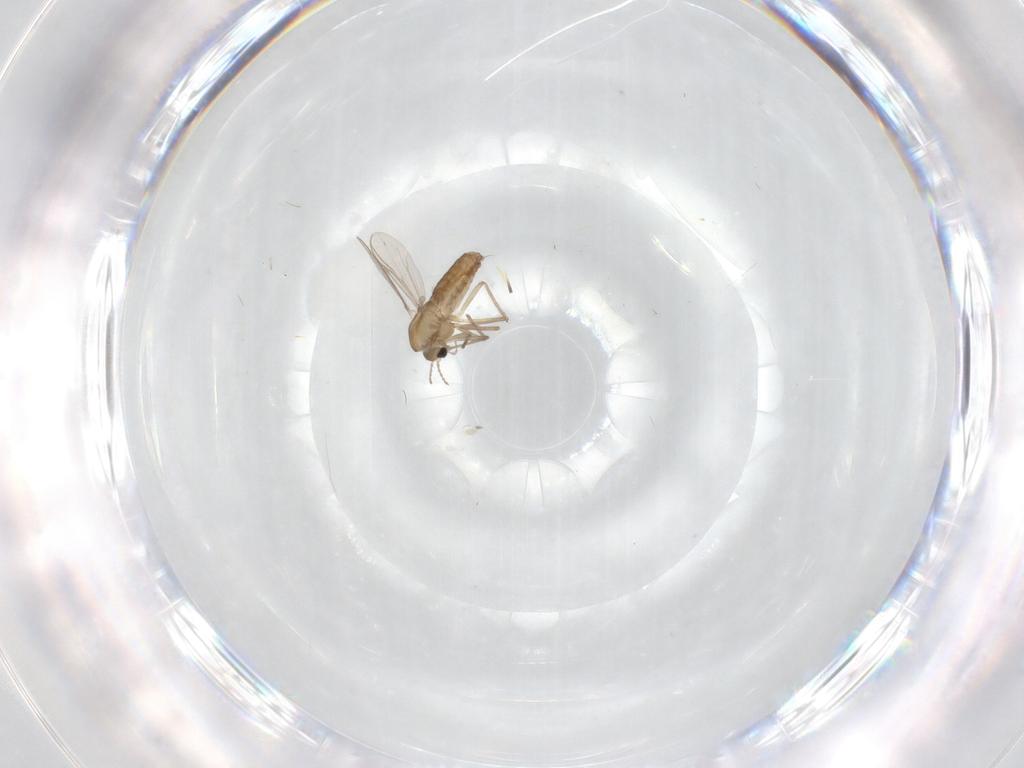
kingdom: Animalia
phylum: Arthropoda
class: Insecta
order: Diptera
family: Chironomidae
